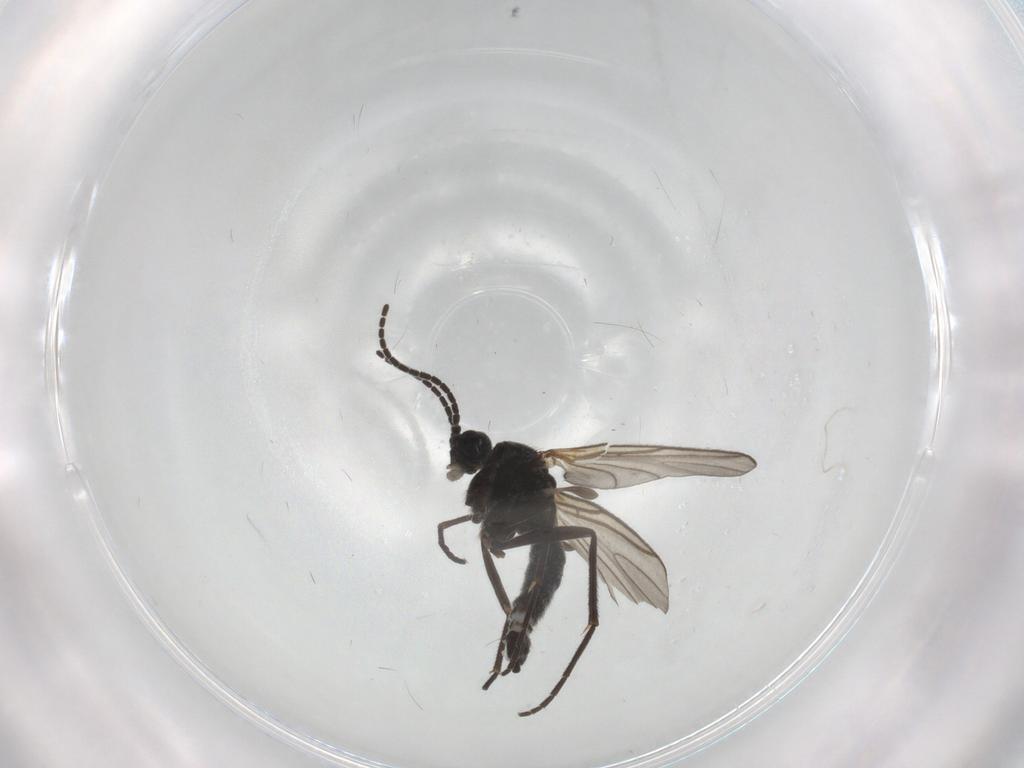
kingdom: Animalia
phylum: Arthropoda
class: Insecta
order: Diptera
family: Sciaridae
